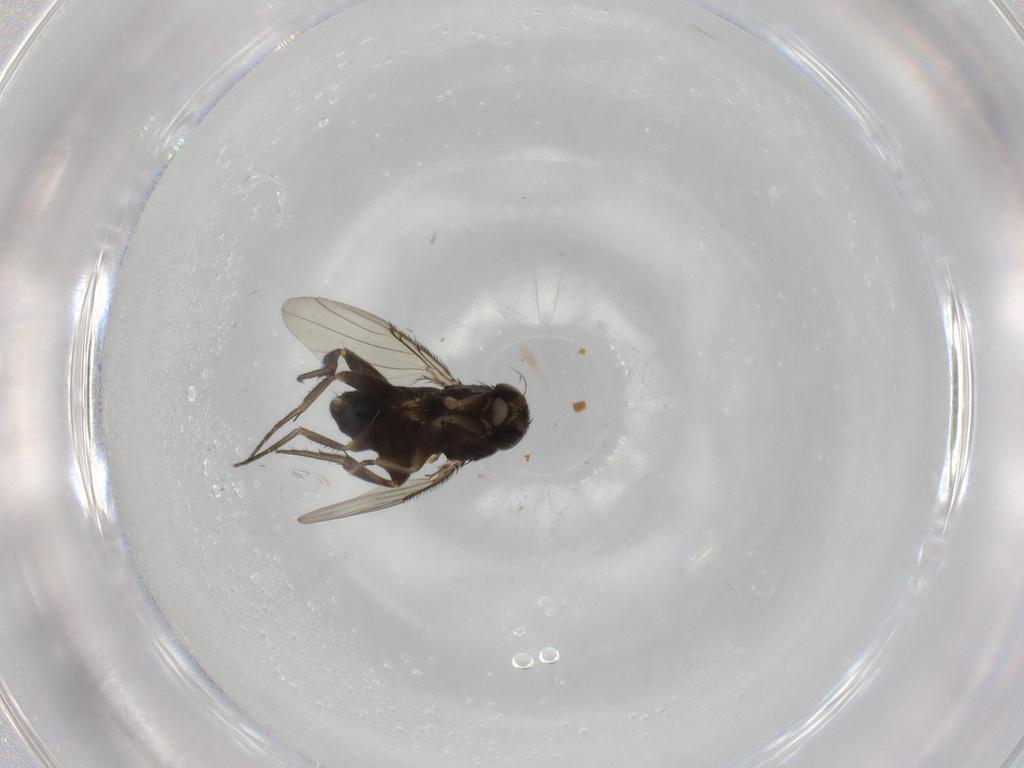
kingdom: Animalia
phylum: Arthropoda
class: Insecta
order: Diptera
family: Phoridae
